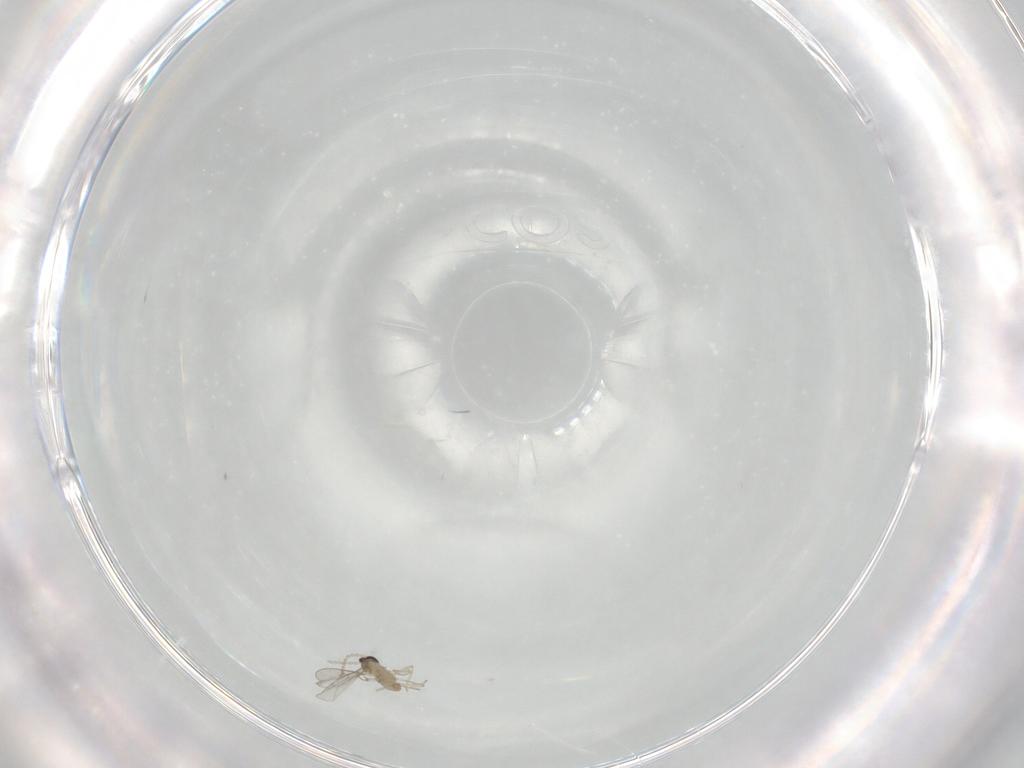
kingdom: Animalia
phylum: Arthropoda
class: Insecta
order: Diptera
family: Cecidomyiidae
